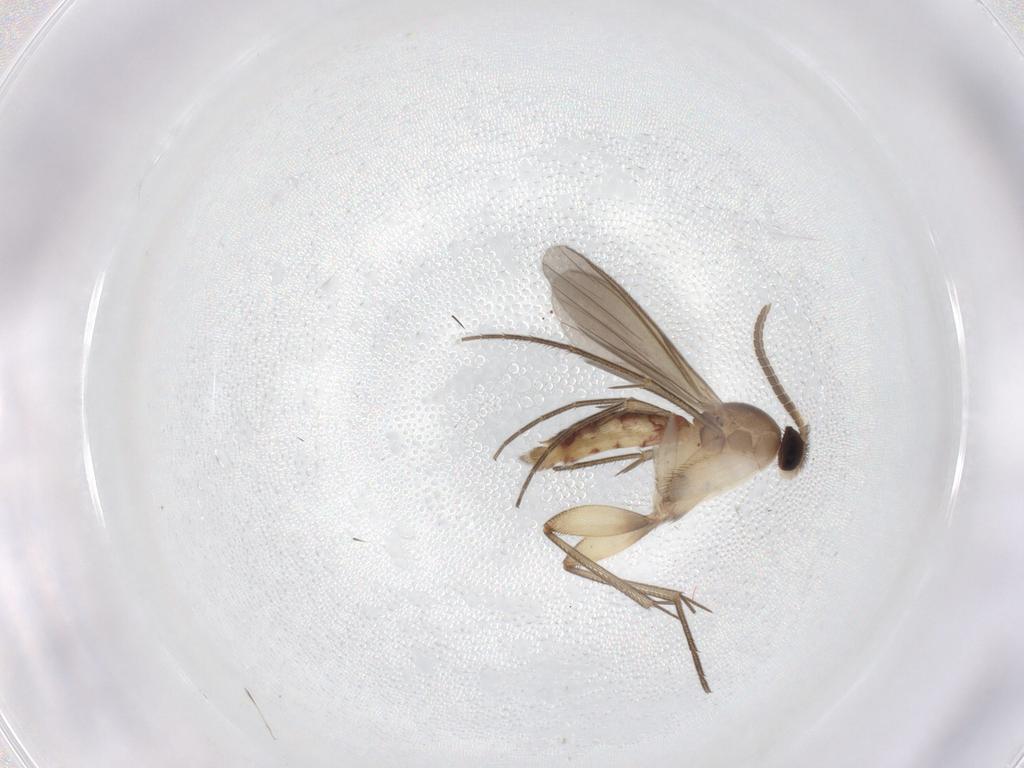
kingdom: Animalia
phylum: Arthropoda
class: Insecta
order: Diptera
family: Mycetophilidae
